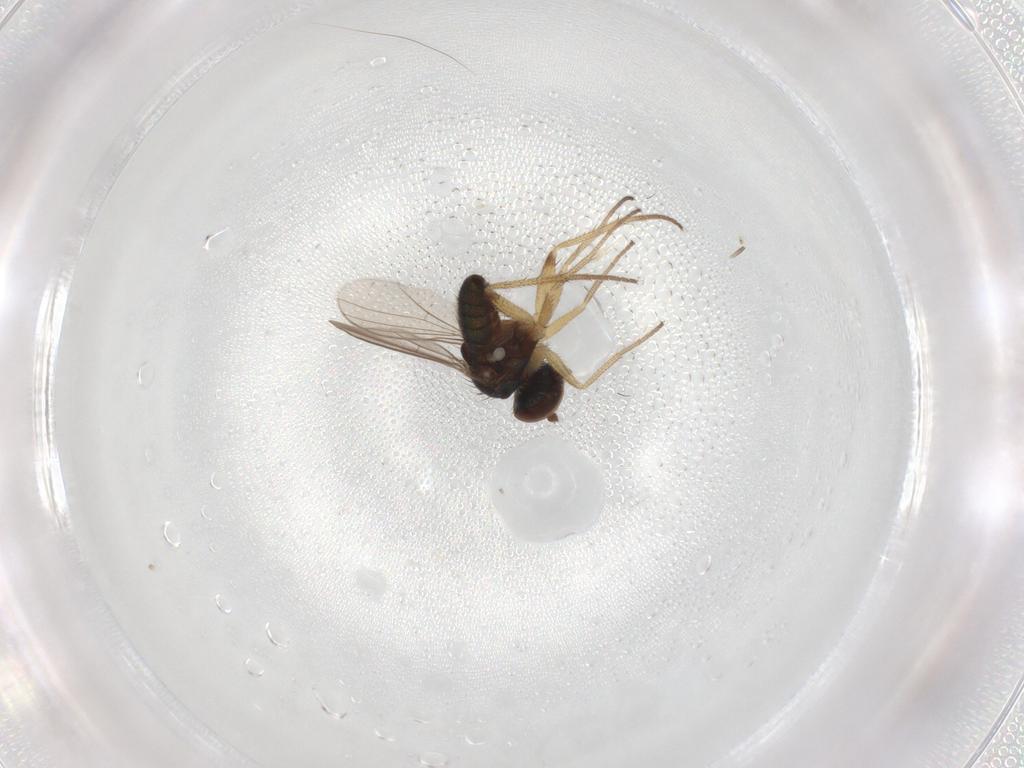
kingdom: Animalia
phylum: Arthropoda
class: Insecta
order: Diptera
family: Dolichopodidae
